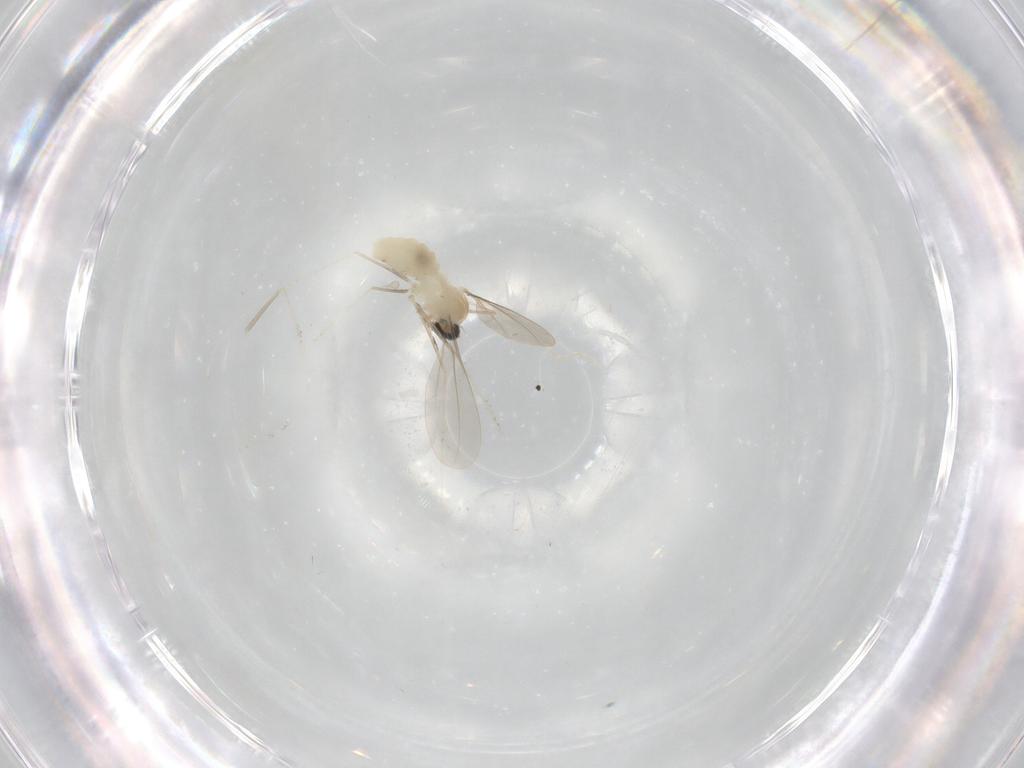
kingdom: Animalia
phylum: Arthropoda
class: Insecta
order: Diptera
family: Cecidomyiidae
